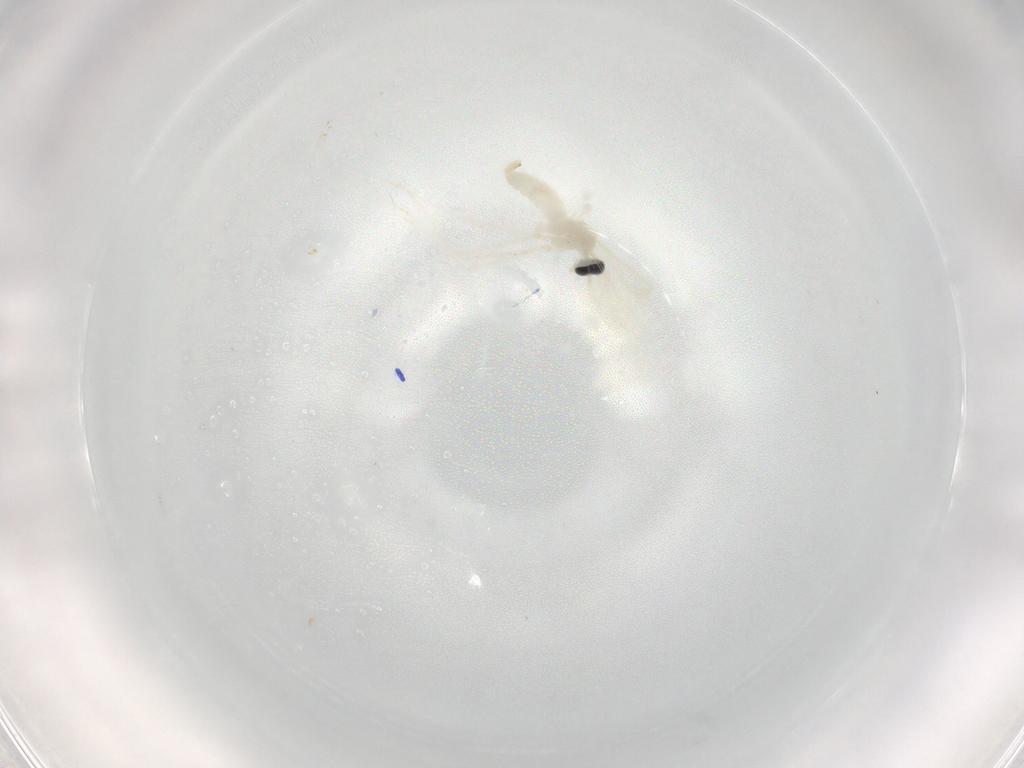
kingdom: Animalia
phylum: Arthropoda
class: Insecta
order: Diptera
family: Cecidomyiidae
